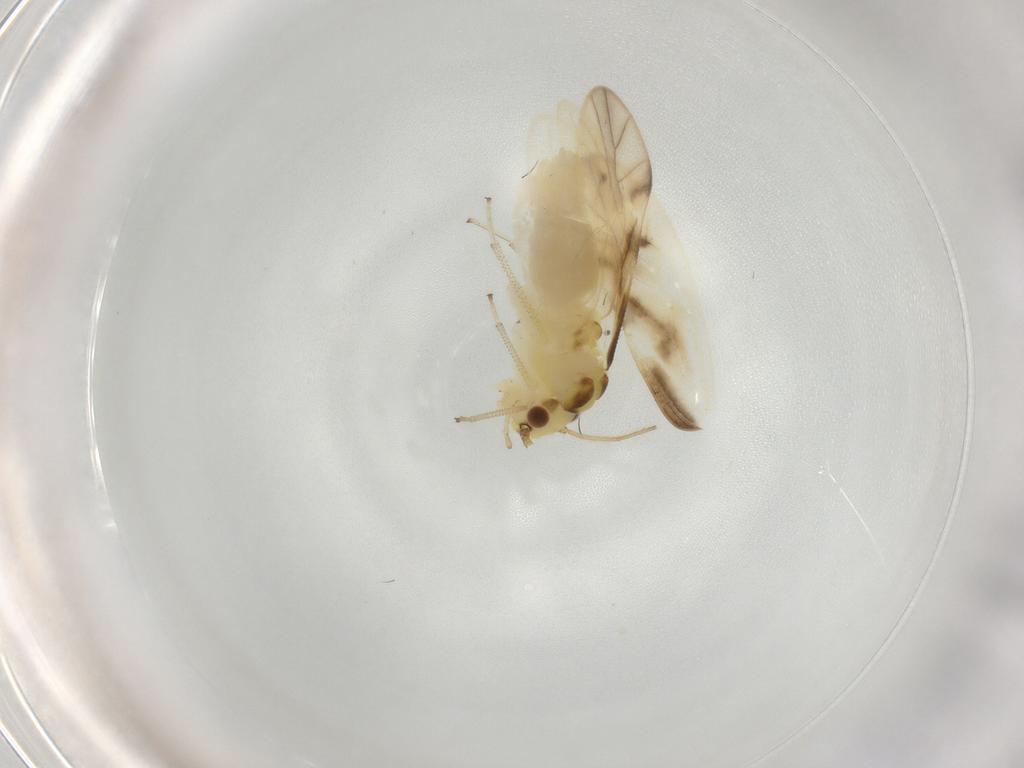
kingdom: Animalia
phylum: Arthropoda
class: Insecta
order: Psocodea
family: Caeciliusidae
